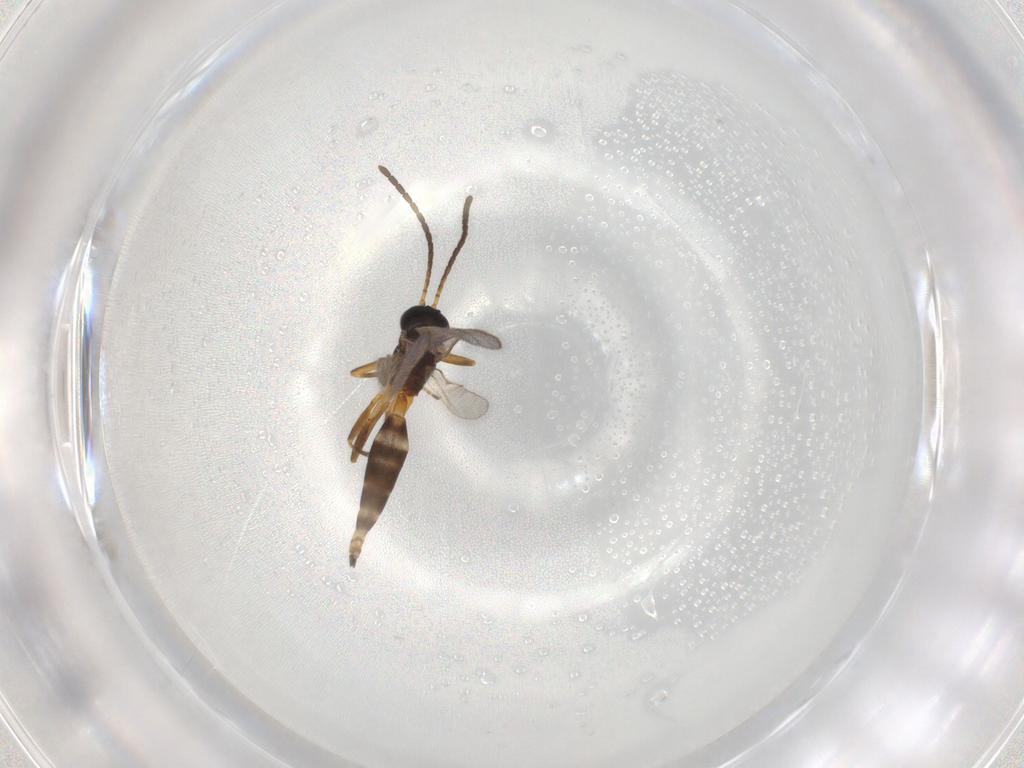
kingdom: Animalia
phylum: Arthropoda
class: Insecta
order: Hymenoptera
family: Braconidae
